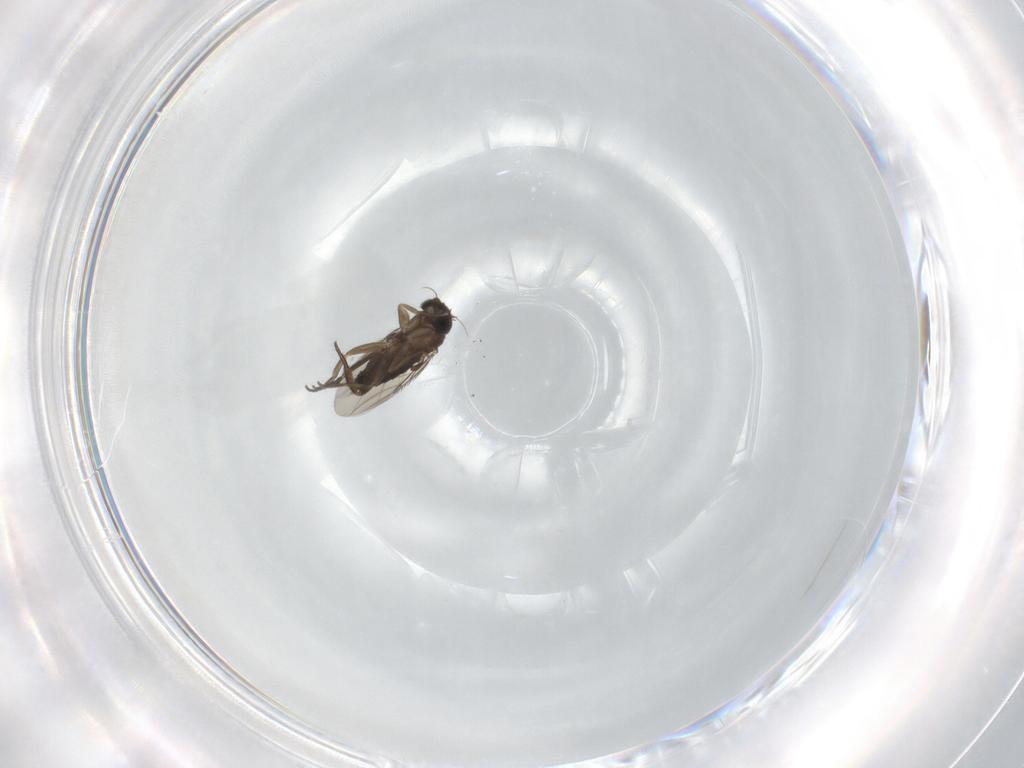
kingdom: Animalia
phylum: Arthropoda
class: Insecta
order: Diptera
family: Phoridae
